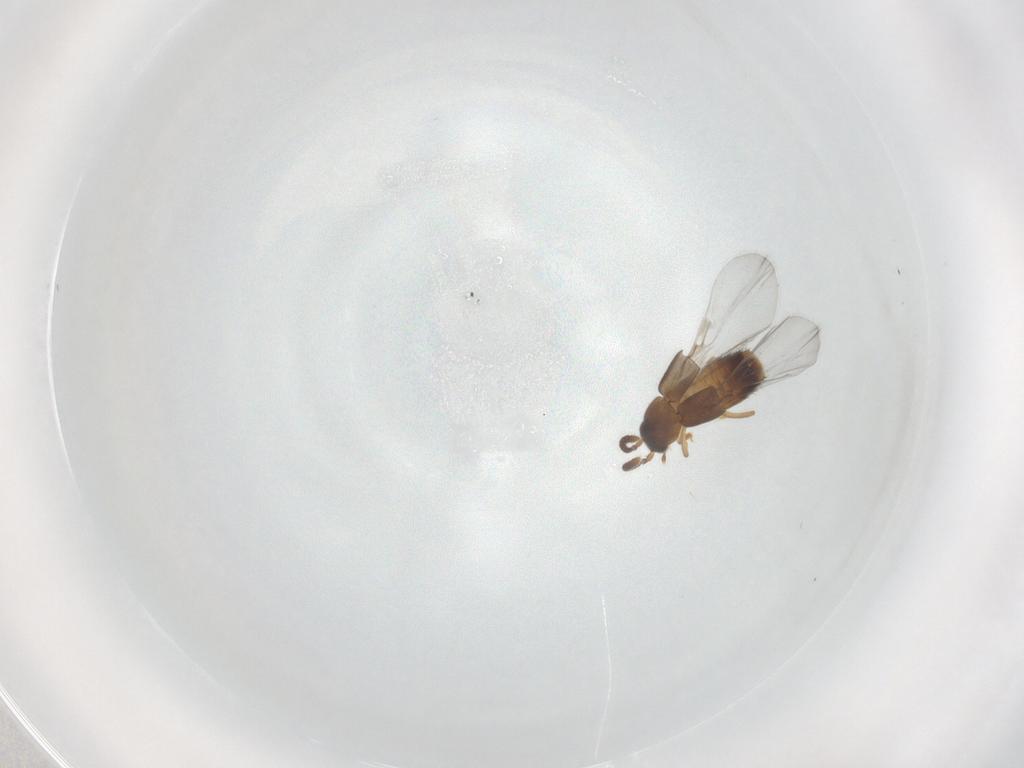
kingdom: Animalia
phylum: Arthropoda
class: Insecta
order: Coleoptera
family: Staphylinidae
